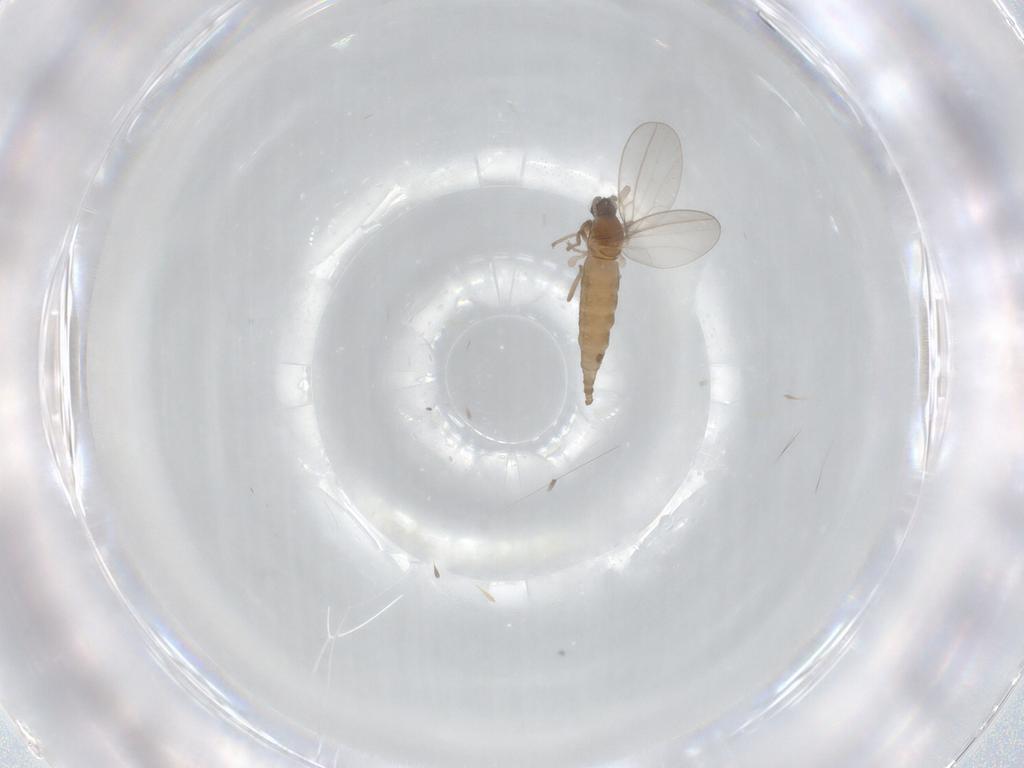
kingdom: Animalia
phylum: Arthropoda
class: Insecta
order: Diptera
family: Cecidomyiidae
